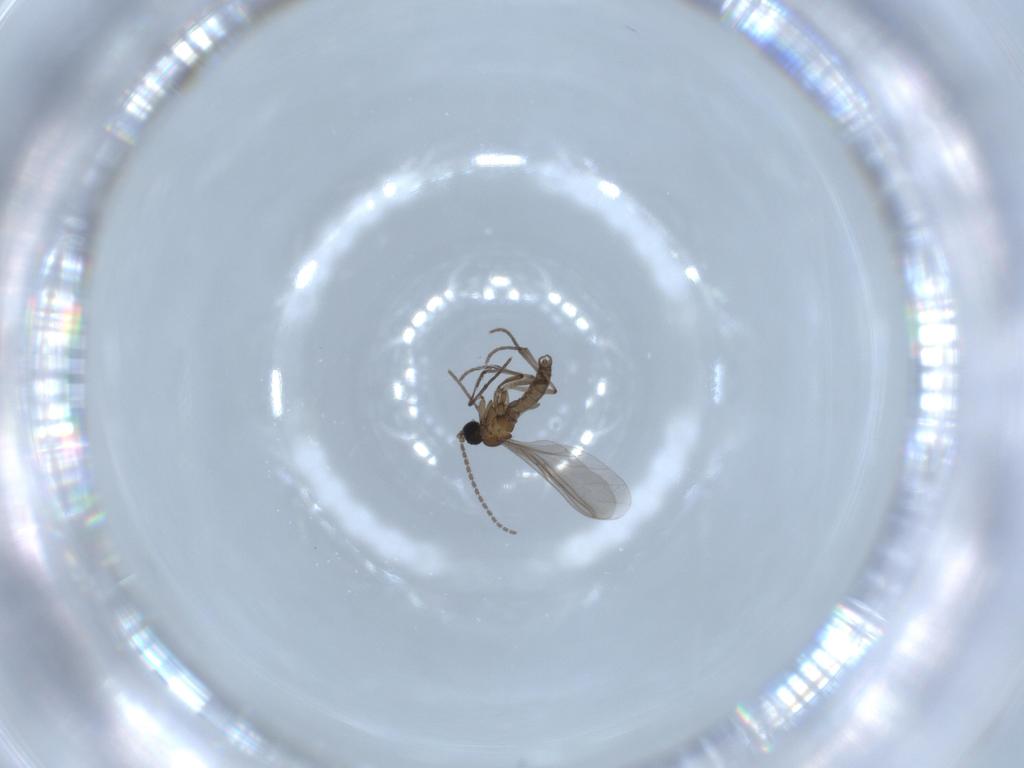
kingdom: Animalia
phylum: Arthropoda
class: Insecta
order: Diptera
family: Sciaridae
